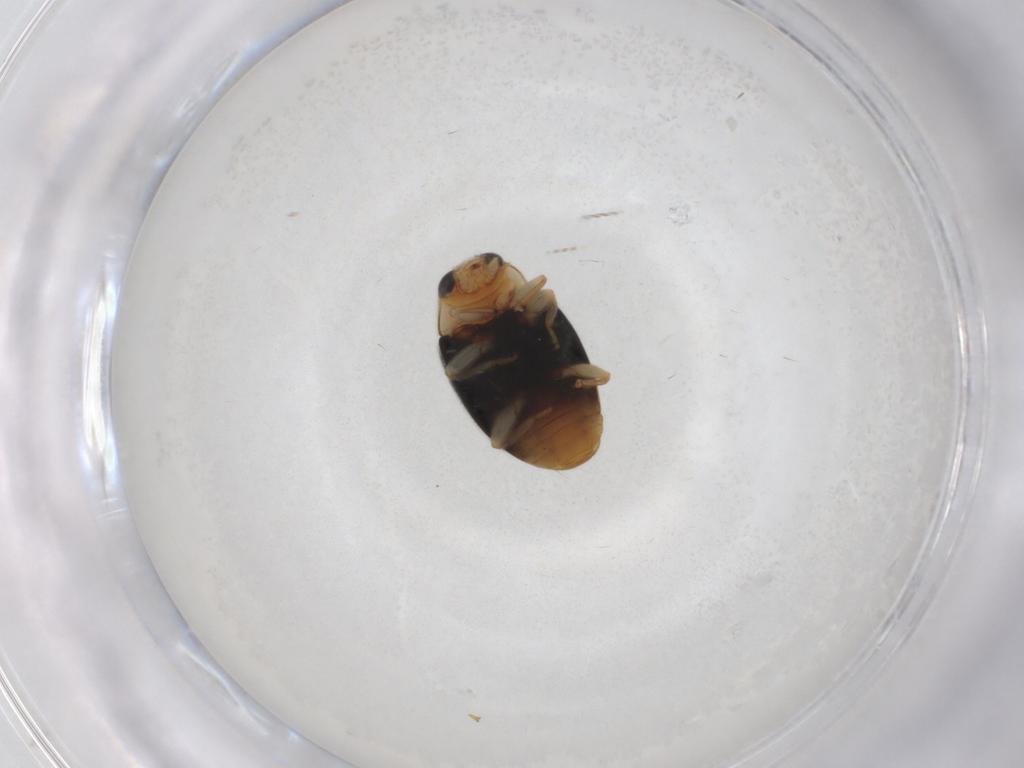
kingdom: Animalia
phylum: Arthropoda
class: Insecta
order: Coleoptera
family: Coccinellidae
